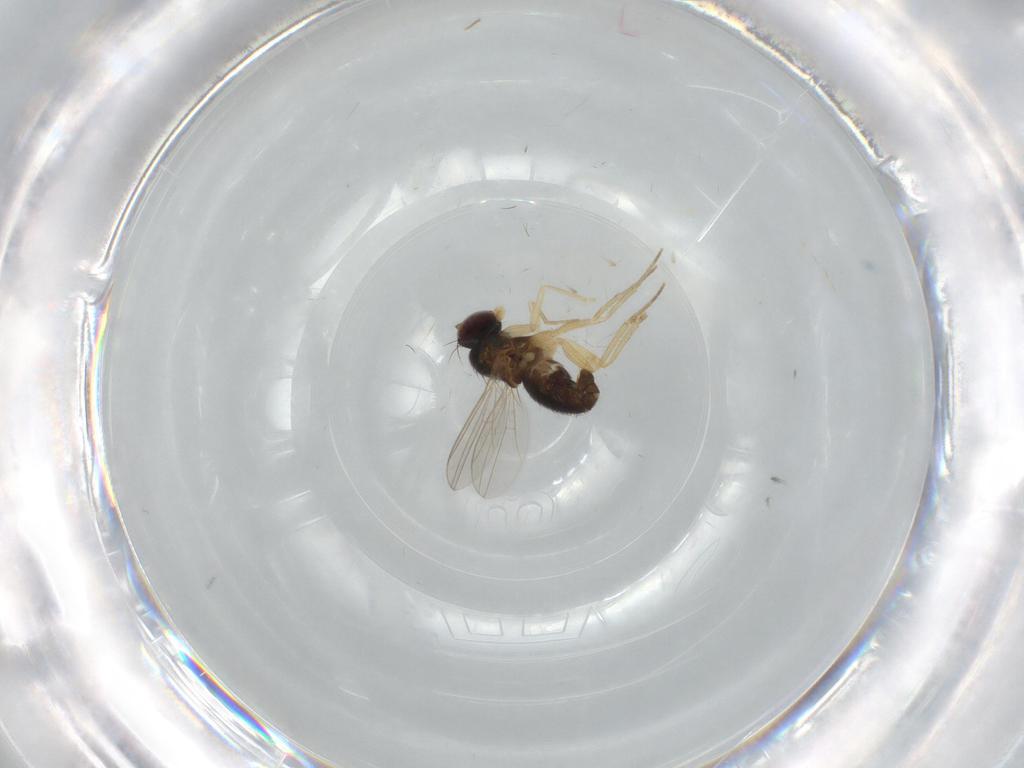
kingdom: Animalia
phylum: Arthropoda
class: Insecta
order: Diptera
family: Dolichopodidae
